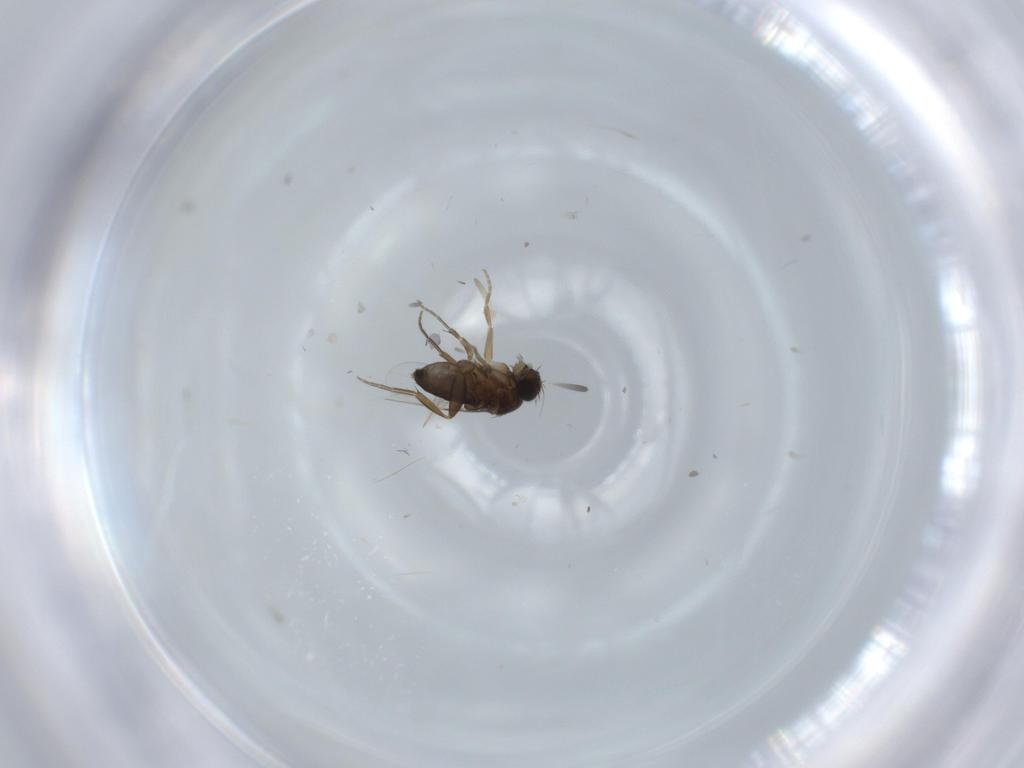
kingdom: Animalia
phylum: Arthropoda
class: Insecta
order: Diptera
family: Phoridae
